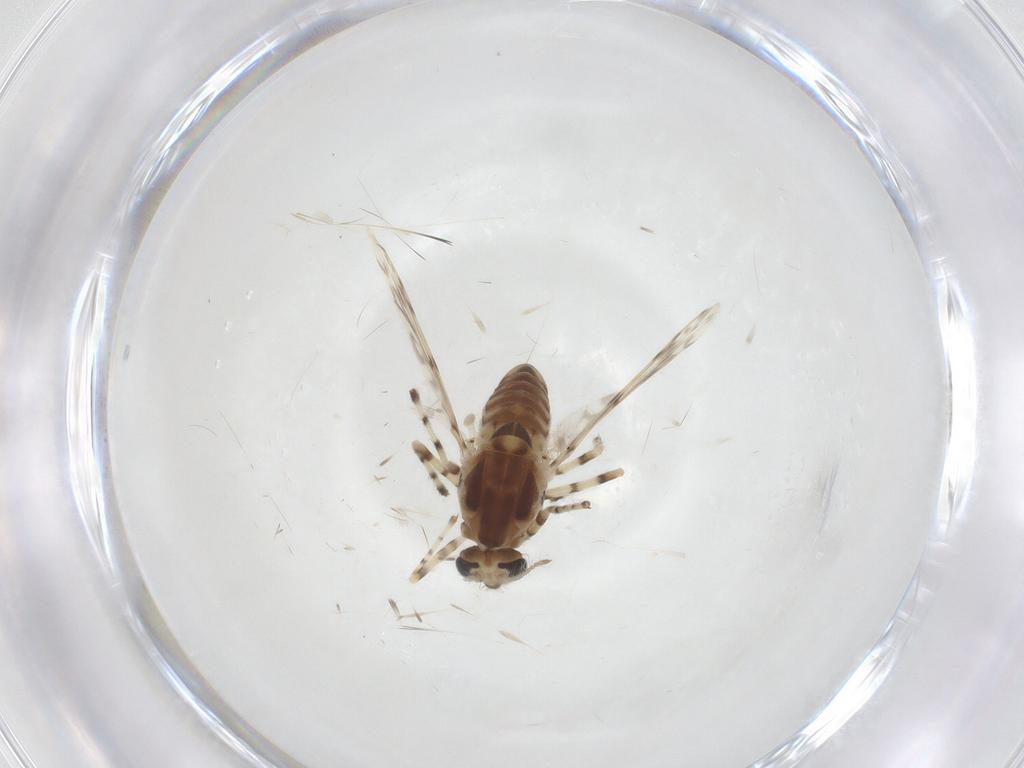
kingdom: Animalia
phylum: Arthropoda
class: Insecta
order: Diptera
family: Chironomidae
